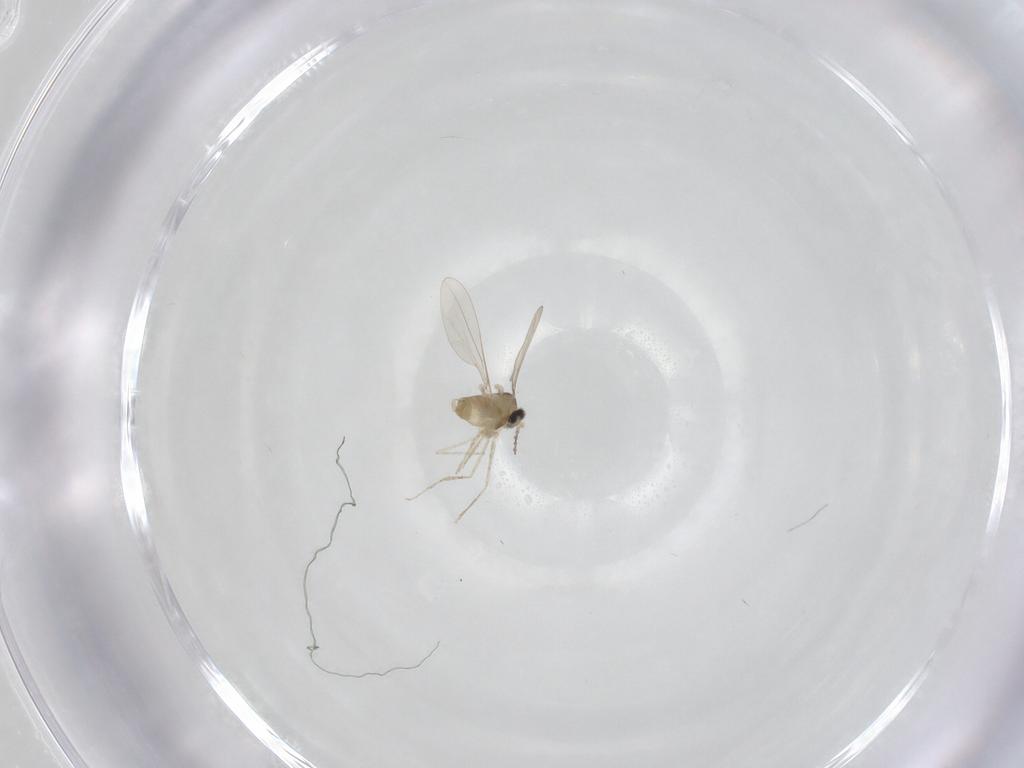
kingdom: Animalia
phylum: Arthropoda
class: Insecta
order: Diptera
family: Cecidomyiidae
